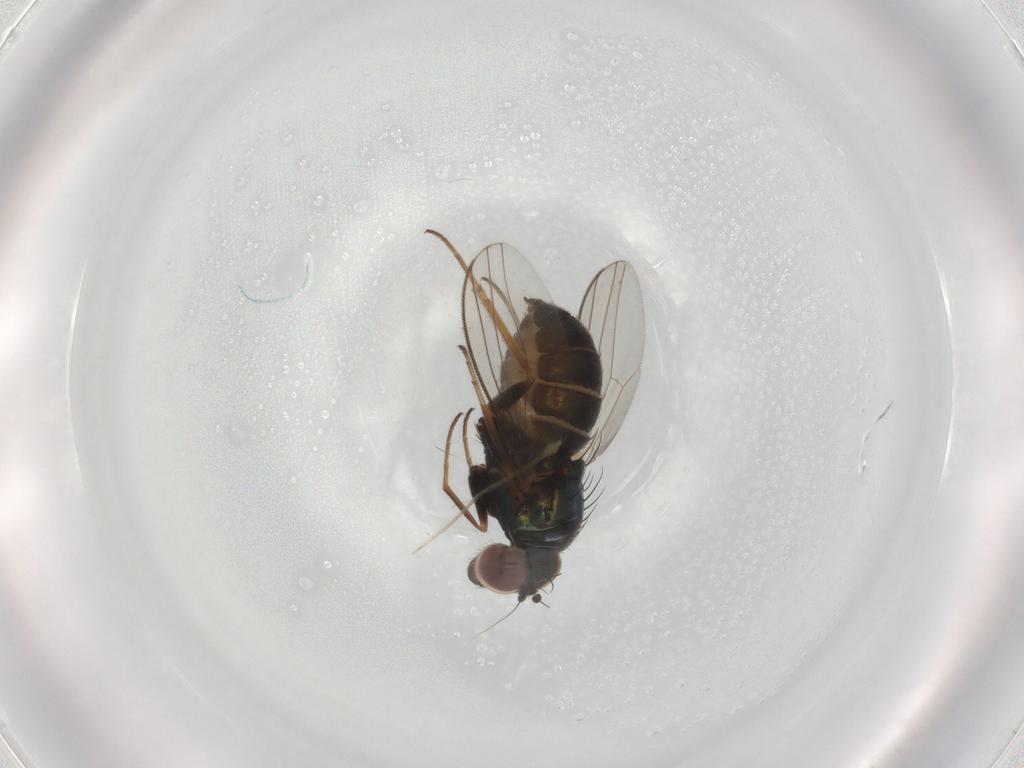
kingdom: Animalia
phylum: Arthropoda
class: Insecta
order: Diptera
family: Dolichopodidae
